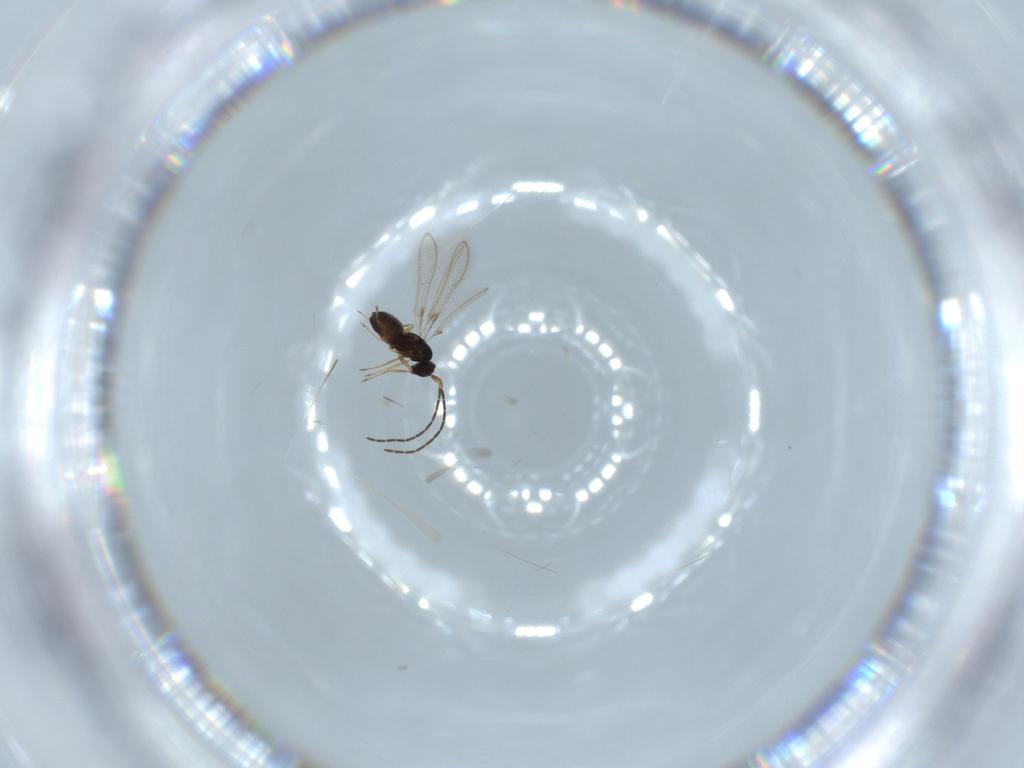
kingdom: Animalia
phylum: Arthropoda
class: Insecta
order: Hymenoptera
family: Mymaridae
